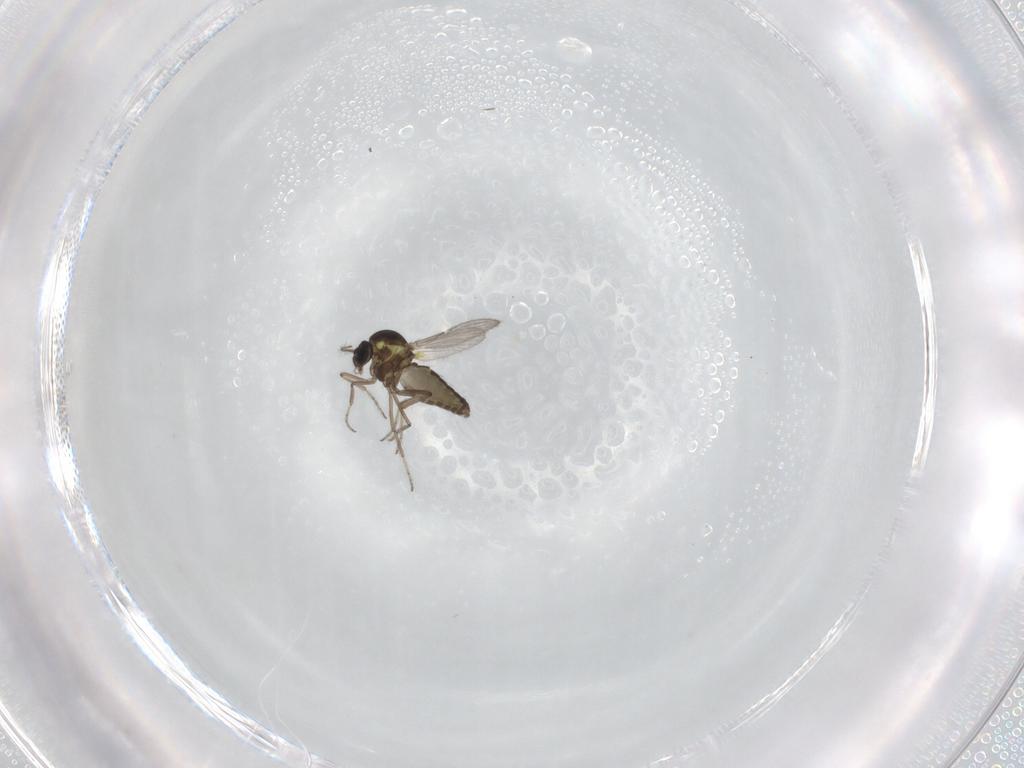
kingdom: Animalia
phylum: Arthropoda
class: Insecta
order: Diptera
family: Ceratopogonidae
